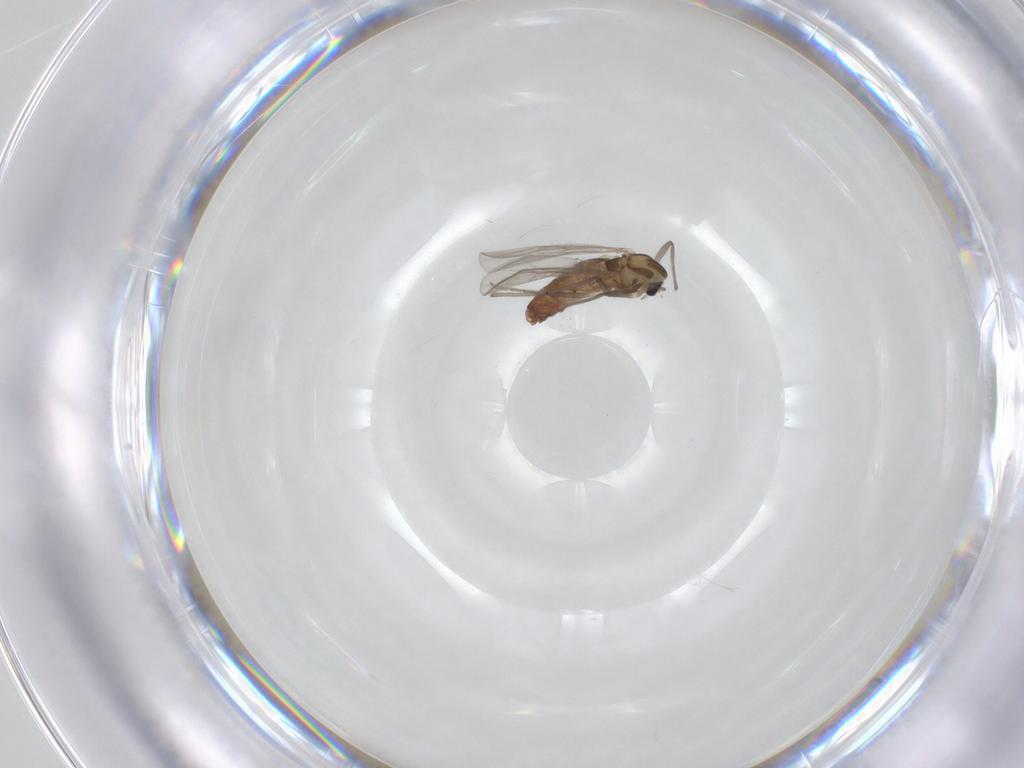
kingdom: Animalia
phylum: Arthropoda
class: Insecta
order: Diptera
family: Chironomidae
